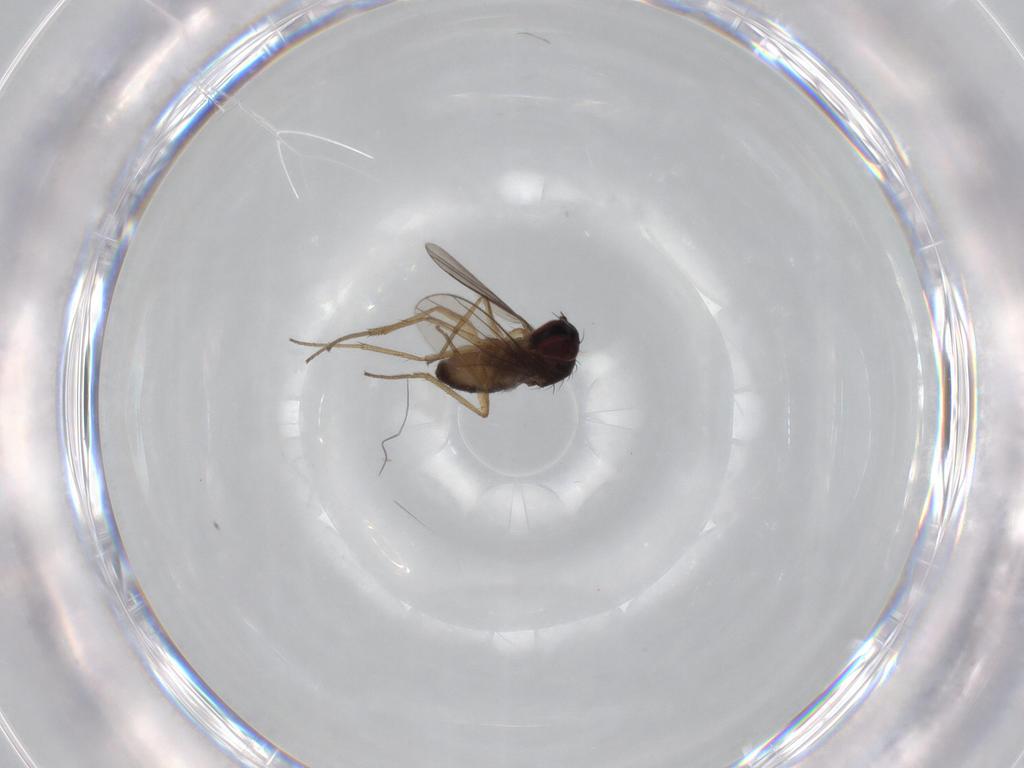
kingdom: Animalia
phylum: Arthropoda
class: Insecta
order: Diptera
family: Dolichopodidae
